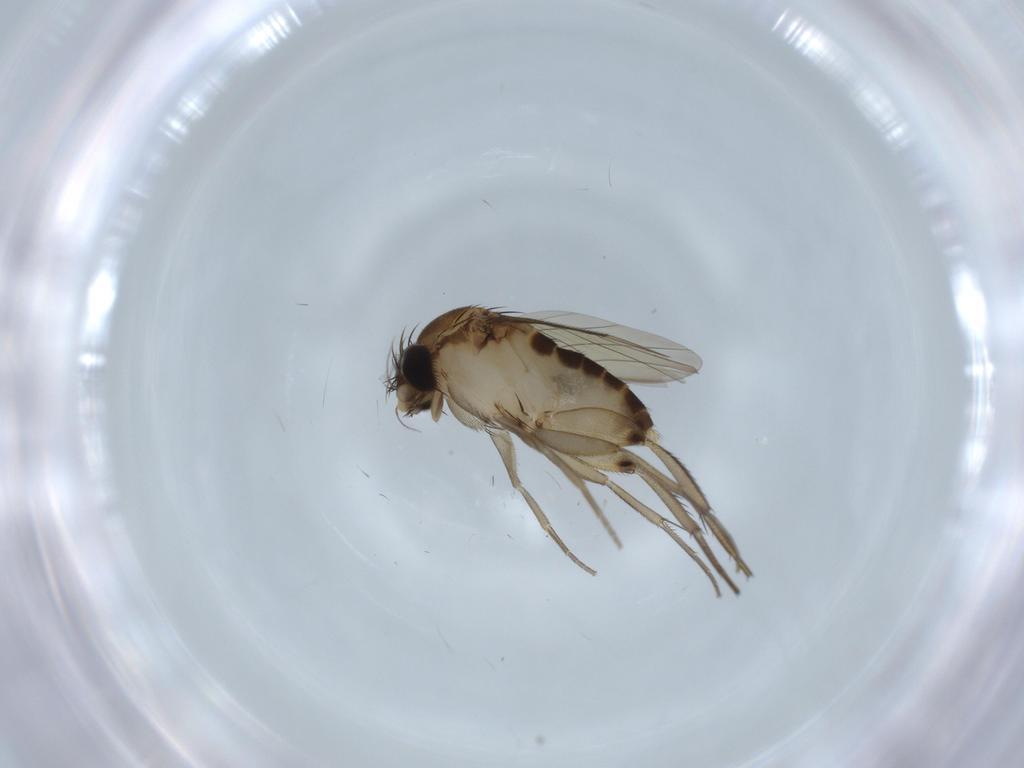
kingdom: Animalia
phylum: Arthropoda
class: Insecta
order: Diptera
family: Phoridae
